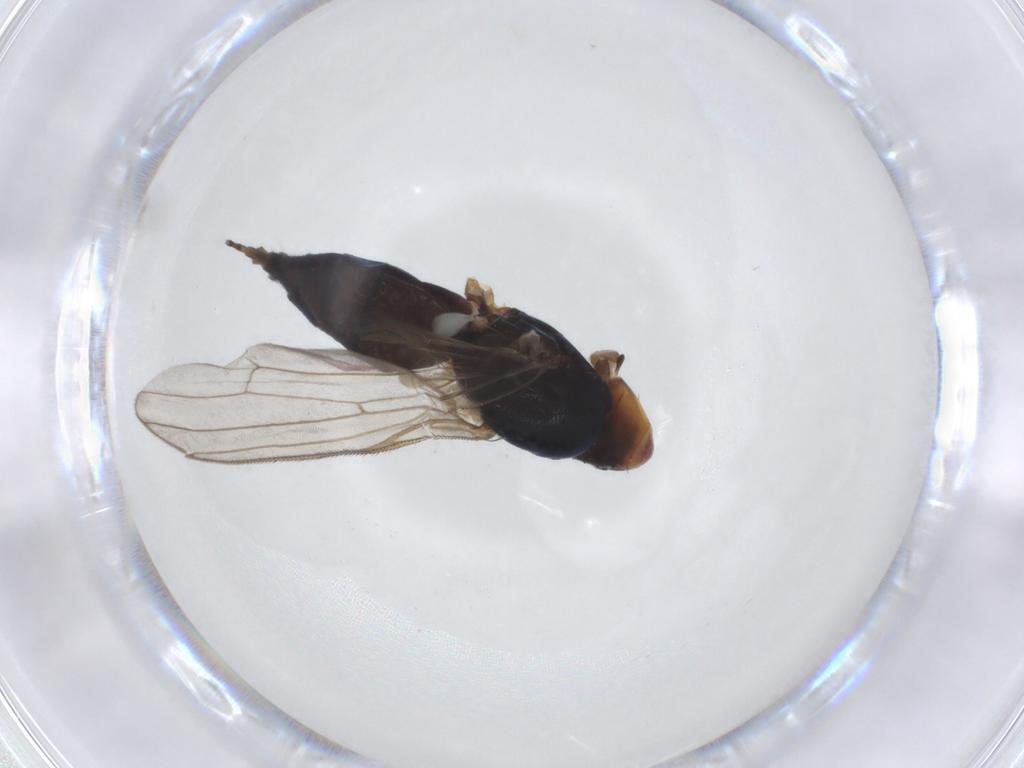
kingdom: Animalia
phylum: Arthropoda
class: Insecta
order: Diptera
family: Psilidae
